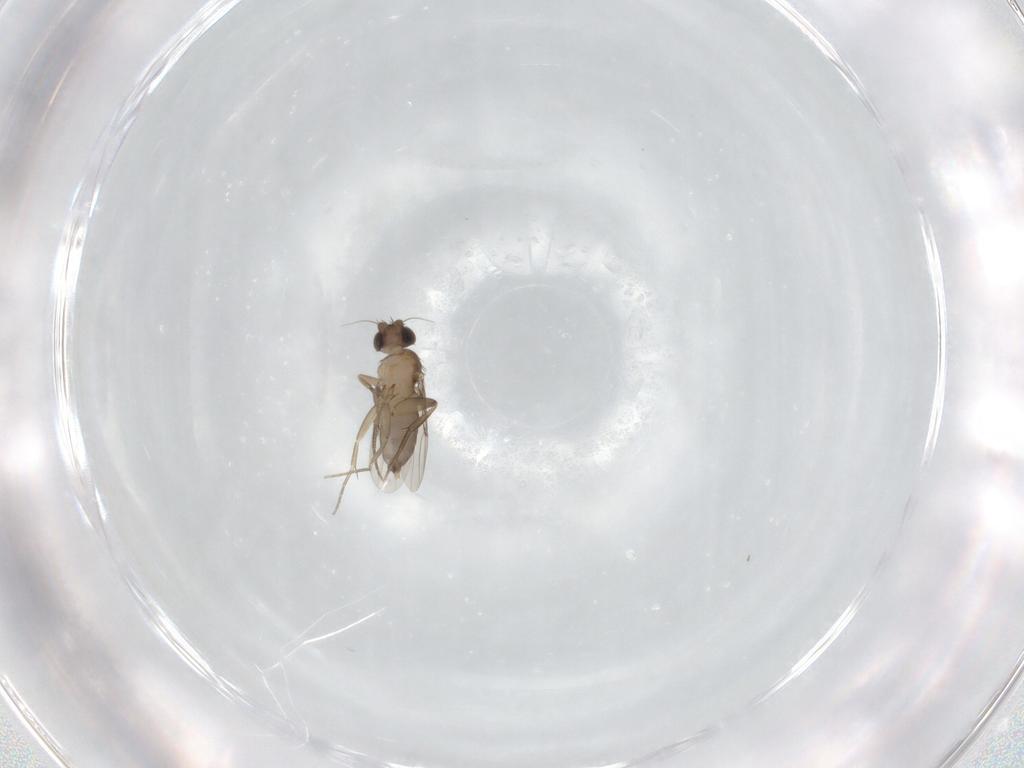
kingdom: Animalia
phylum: Arthropoda
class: Insecta
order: Diptera
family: Phoridae
